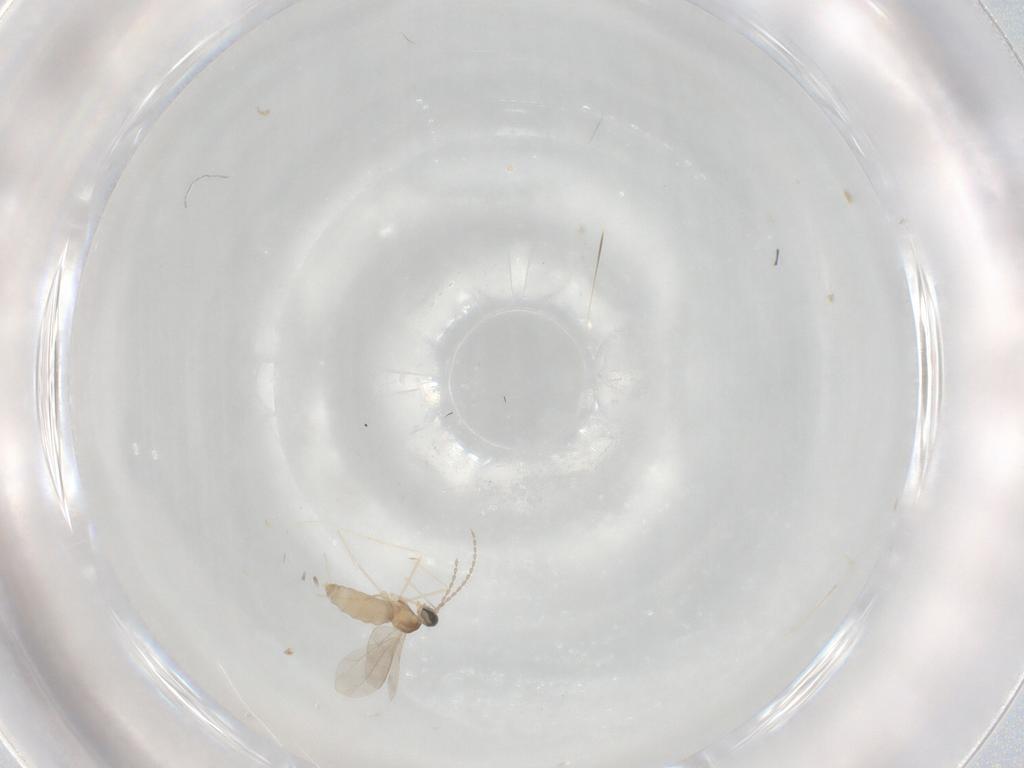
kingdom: Animalia
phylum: Arthropoda
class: Insecta
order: Diptera
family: Cecidomyiidae
